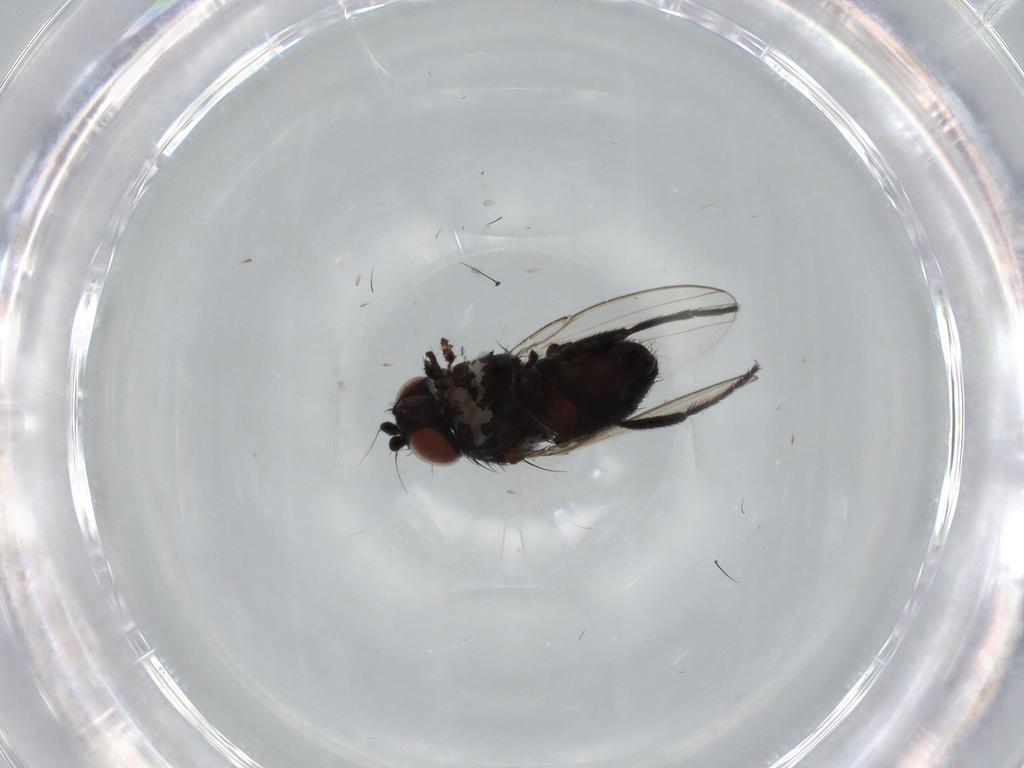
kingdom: Animalia
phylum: Arthropoda
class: Insecta
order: Diptera
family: Milichiidae
